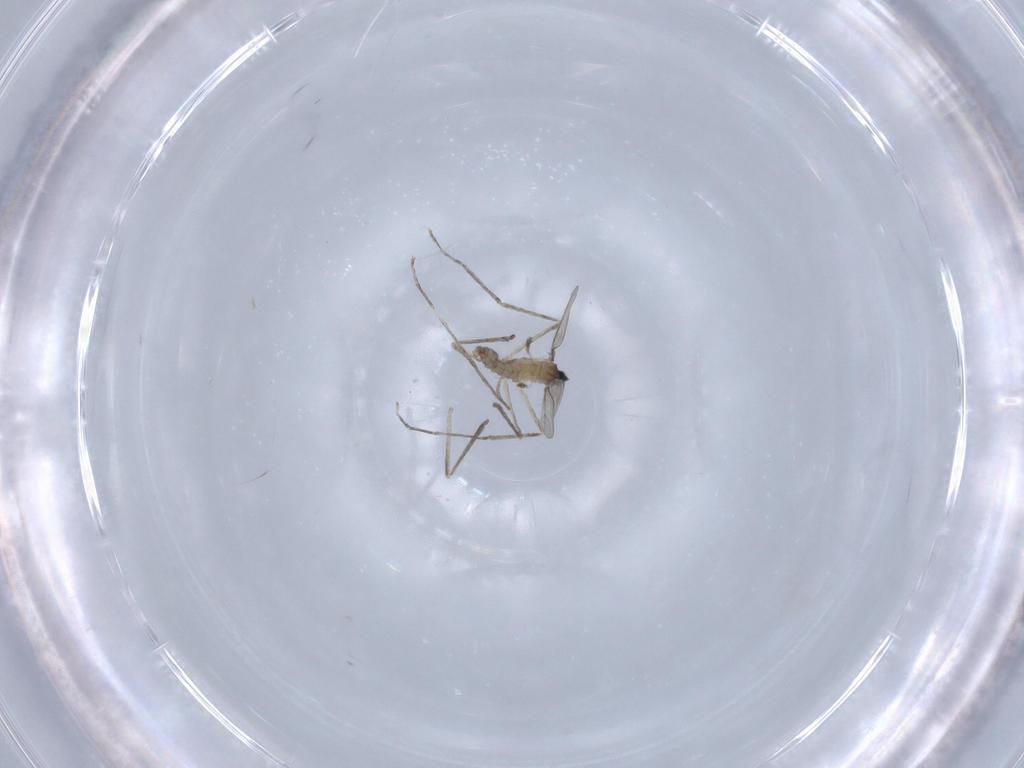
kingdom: Animalia
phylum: Arthropoda
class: Insecta
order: Diptera
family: Cecidomyiidae
